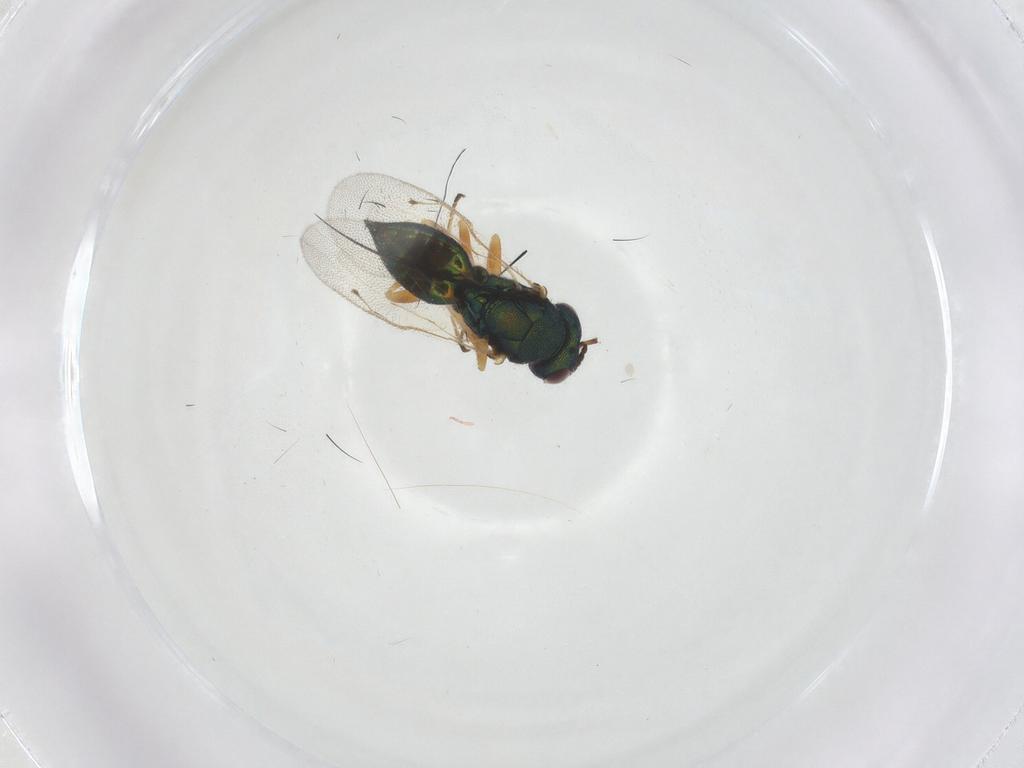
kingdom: Animalia
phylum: Arthropoda
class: Insecta
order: Hymenoptera
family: Pteromalidae
